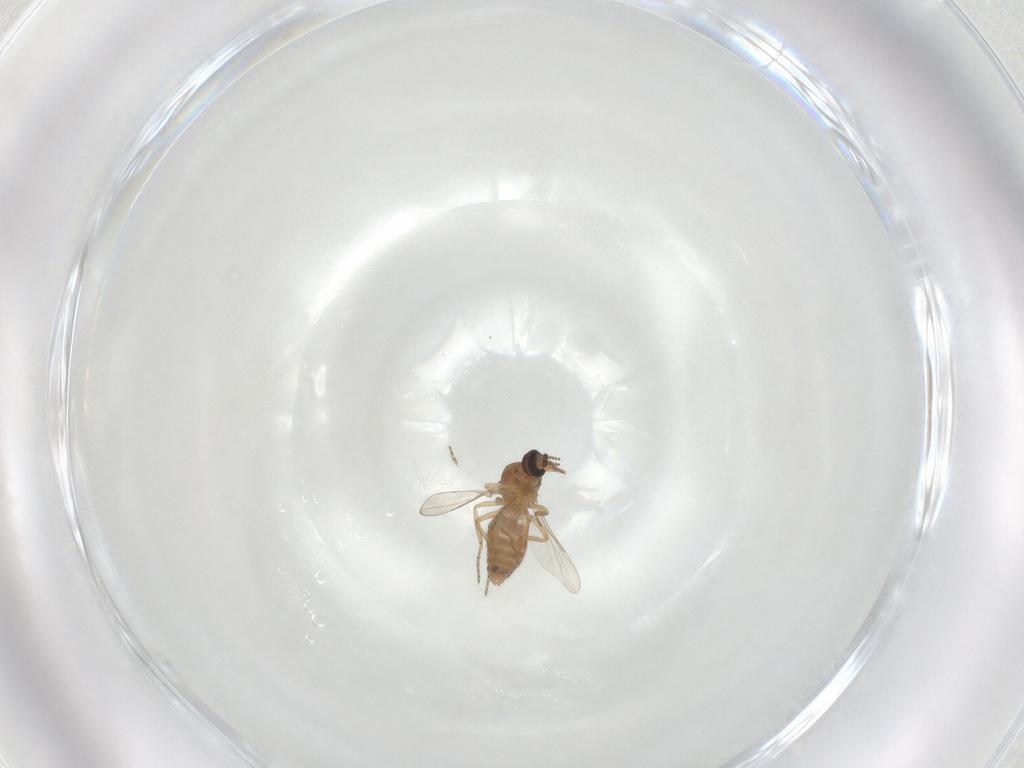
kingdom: Animalia
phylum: Arthropoda
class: Insecta
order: Diptera
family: Ceratopogonidae
